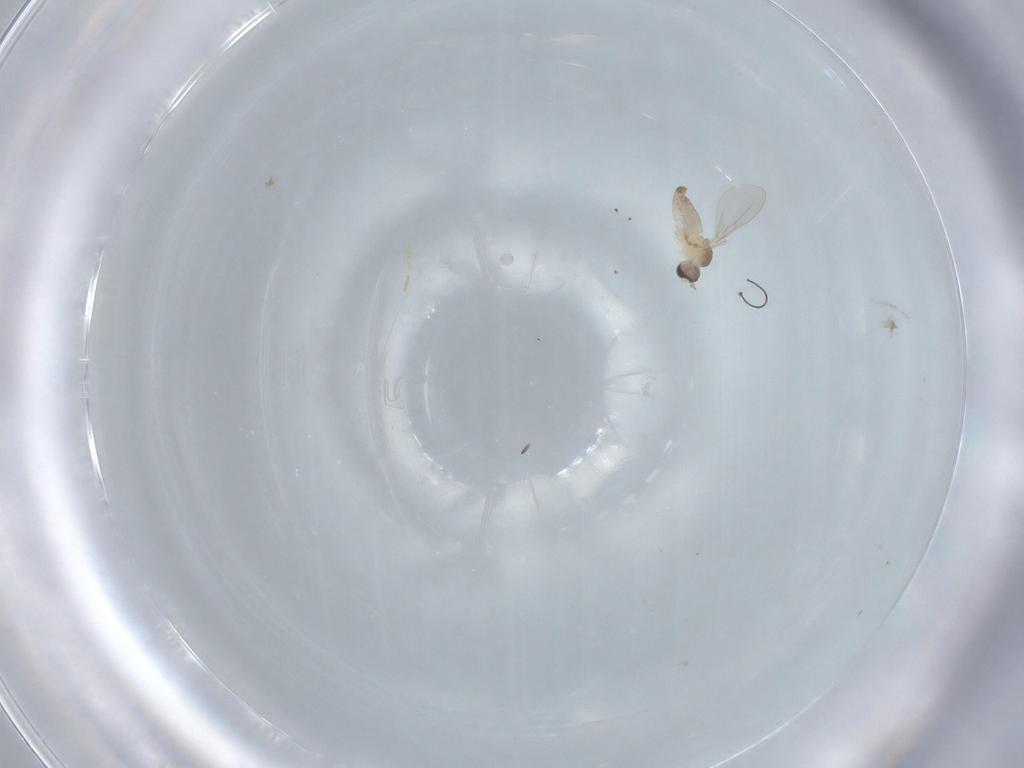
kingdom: Animalia
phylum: Arthropoda
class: Insecta
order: Diptera
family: Cecidomyiidae
